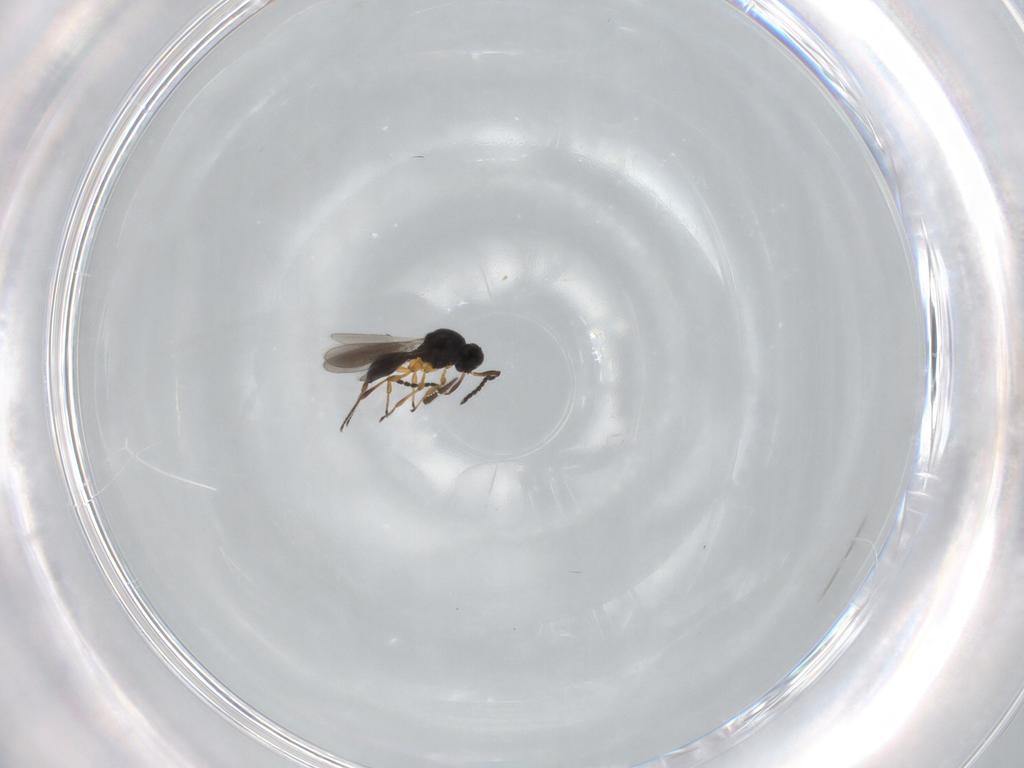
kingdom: Animalia
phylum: Arthropoda
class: Insecta
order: Hymenoptera
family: Platygastridae
